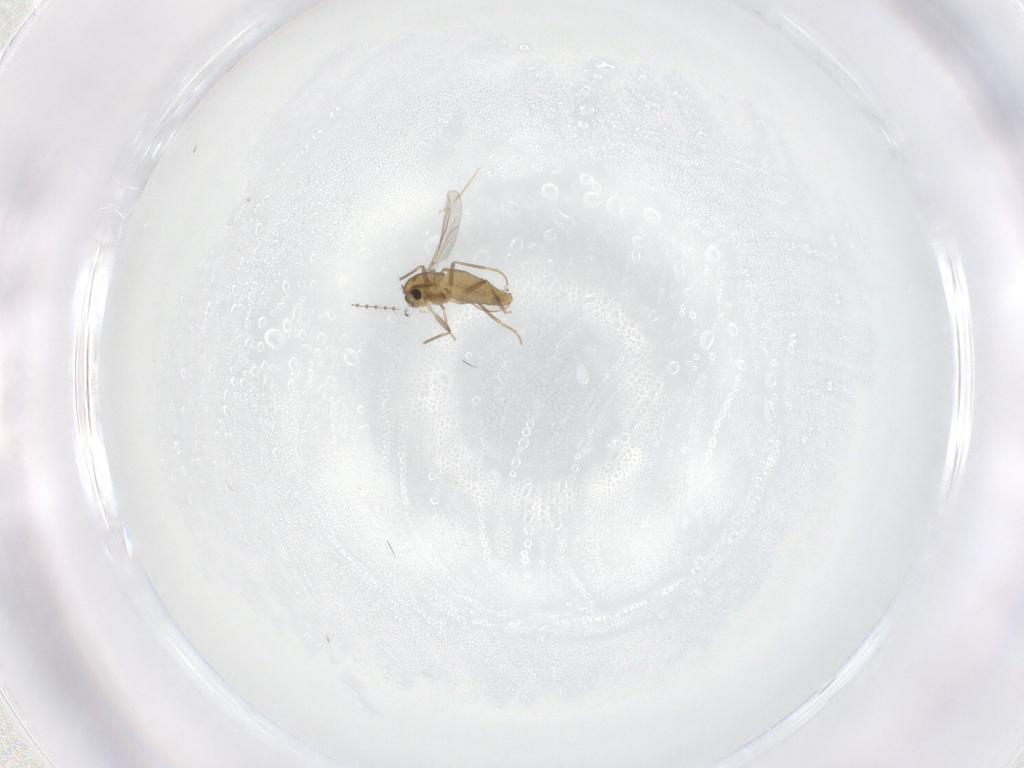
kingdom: Animalia
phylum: Arthropoda
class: Insecta
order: Diptera
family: Chironomidae
